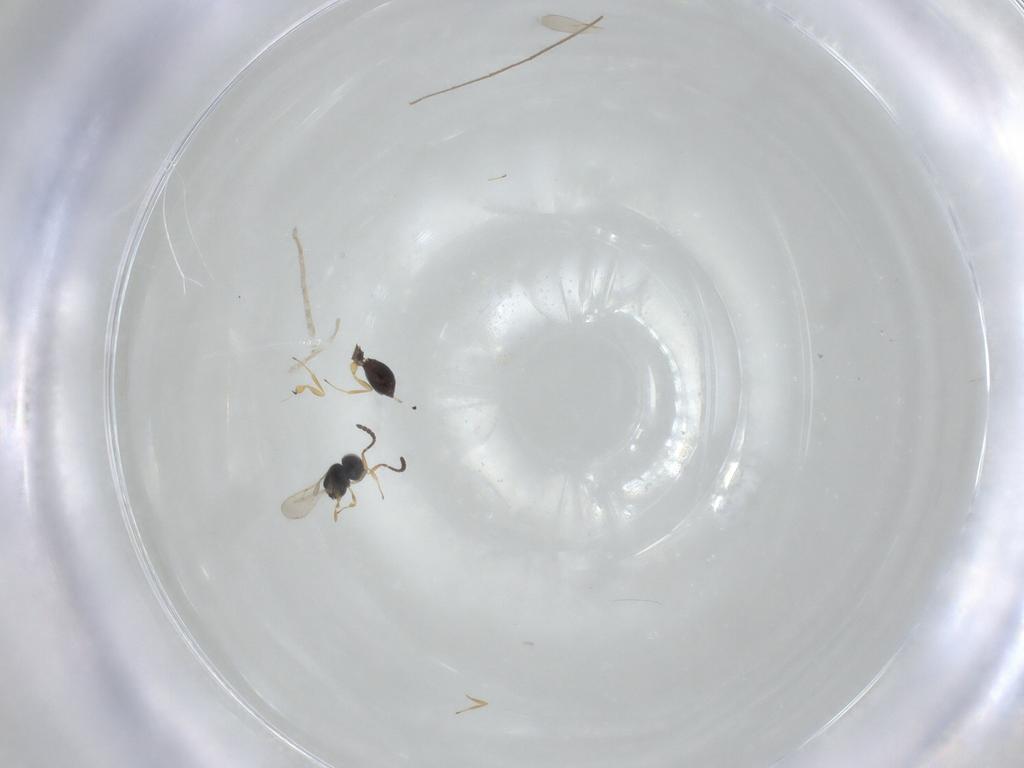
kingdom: Animalia
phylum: Arthropoda
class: Insecta
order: Hymenoptera
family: Scelionidae
